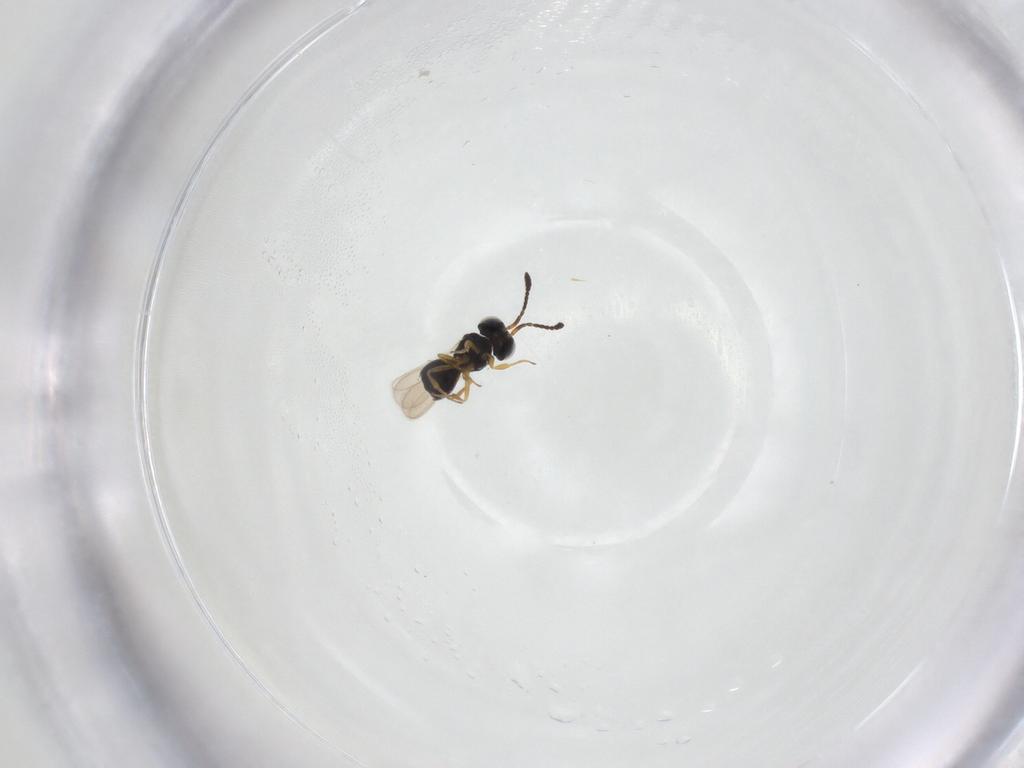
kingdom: Animalia
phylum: Arthropoda
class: Insecta
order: Hymenoptera
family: Scelionidae
